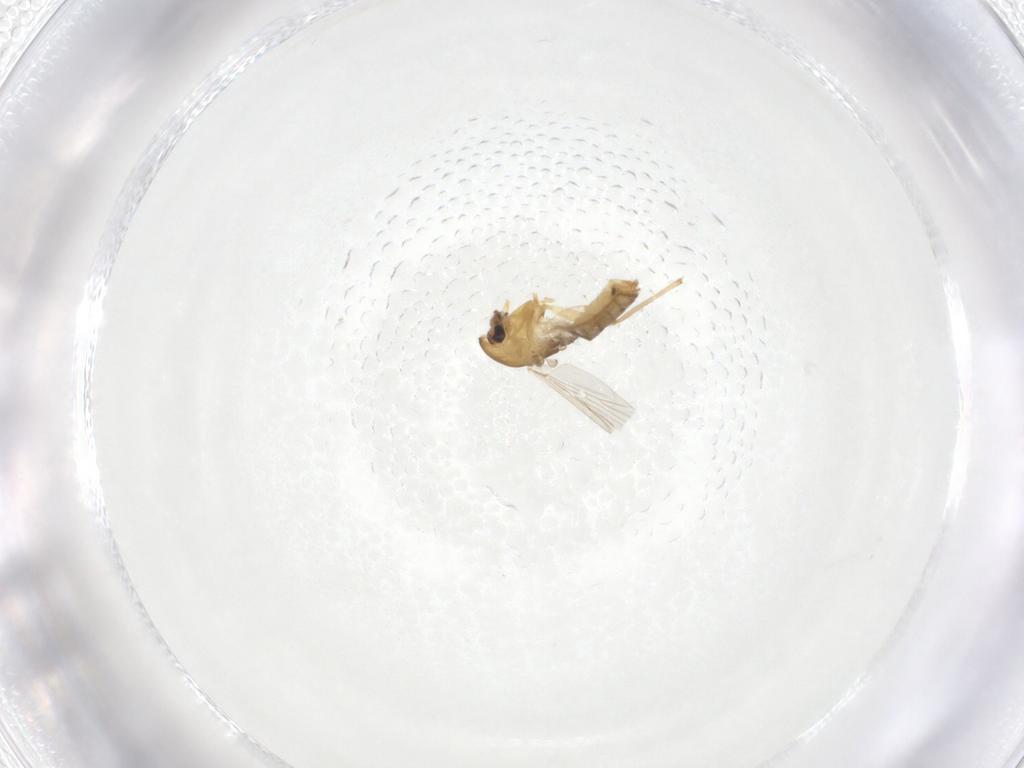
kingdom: Animalia
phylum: Arthropoda
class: Insecta
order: Diptera
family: Chironomidae
